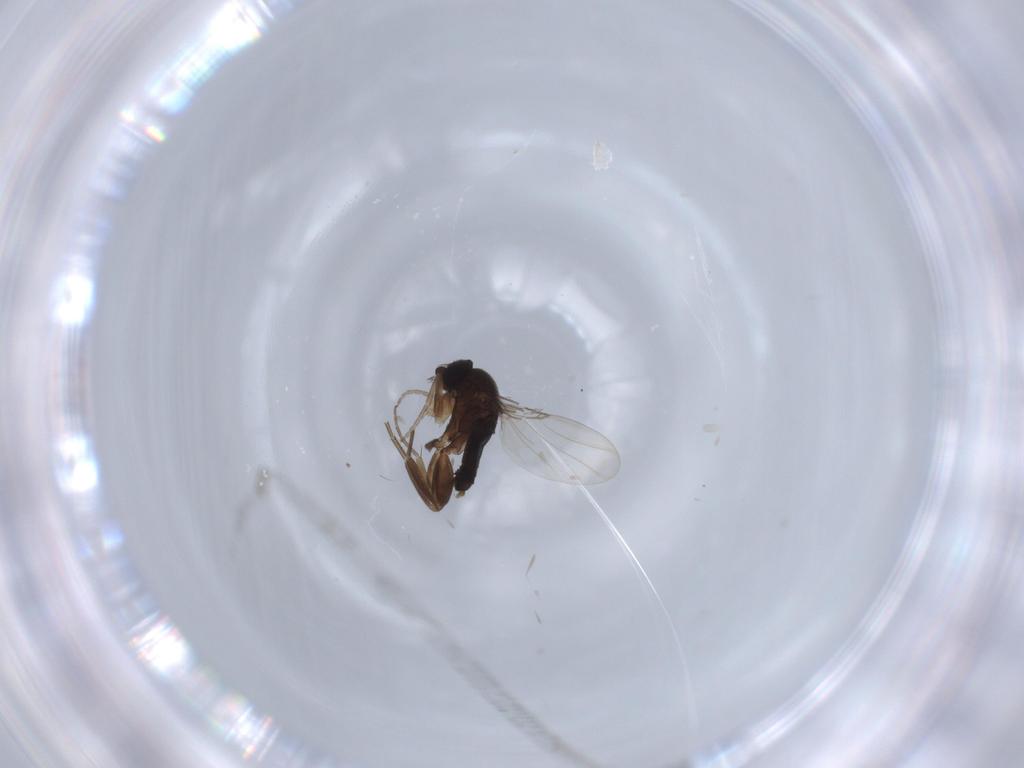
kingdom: Animalia
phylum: Arthropoda
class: Insecta
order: Diptera
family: Phoridae
